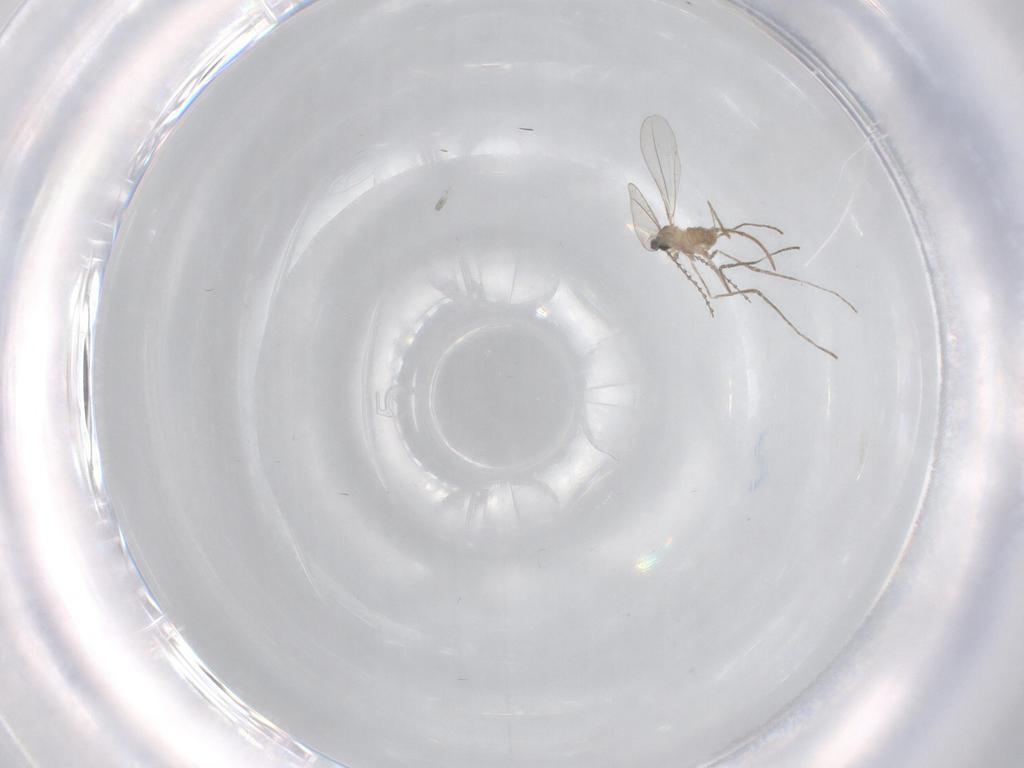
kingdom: Animalia
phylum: Arthropoda
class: Insecta
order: Diptera
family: Cecidomyiidae
